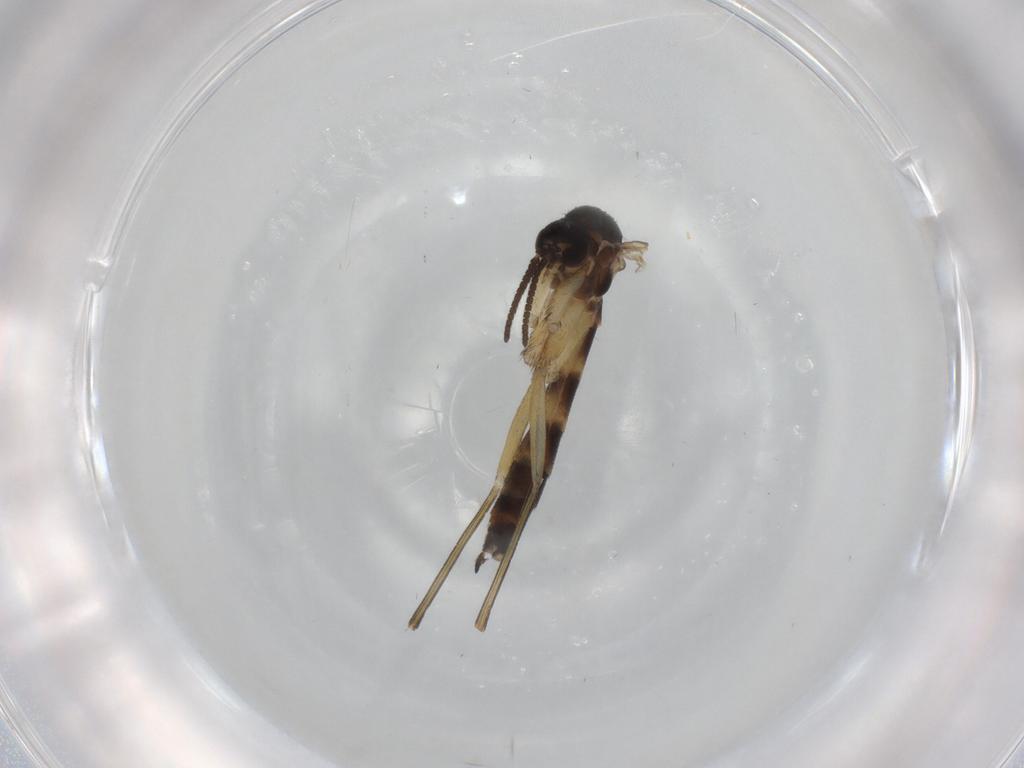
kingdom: Animalia
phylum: Arthropoda
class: Insecta
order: Diptera
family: Keroplatidae
